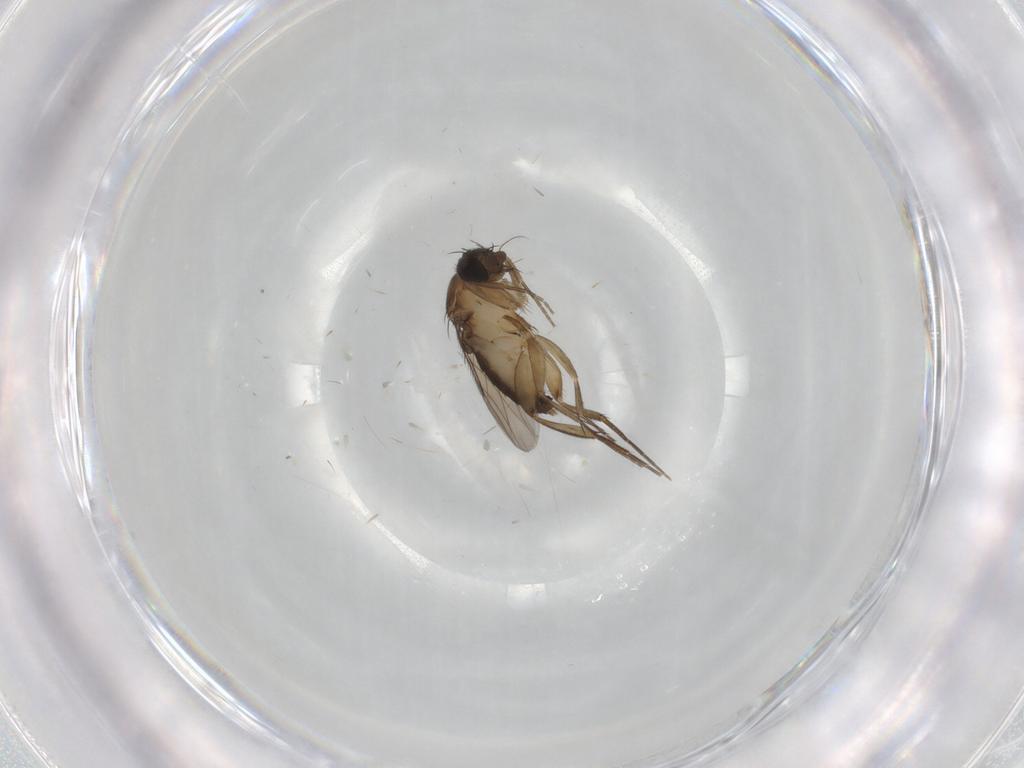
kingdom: Animalia
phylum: Arthropoda
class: Insecta
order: Diptera
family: Phoridae
